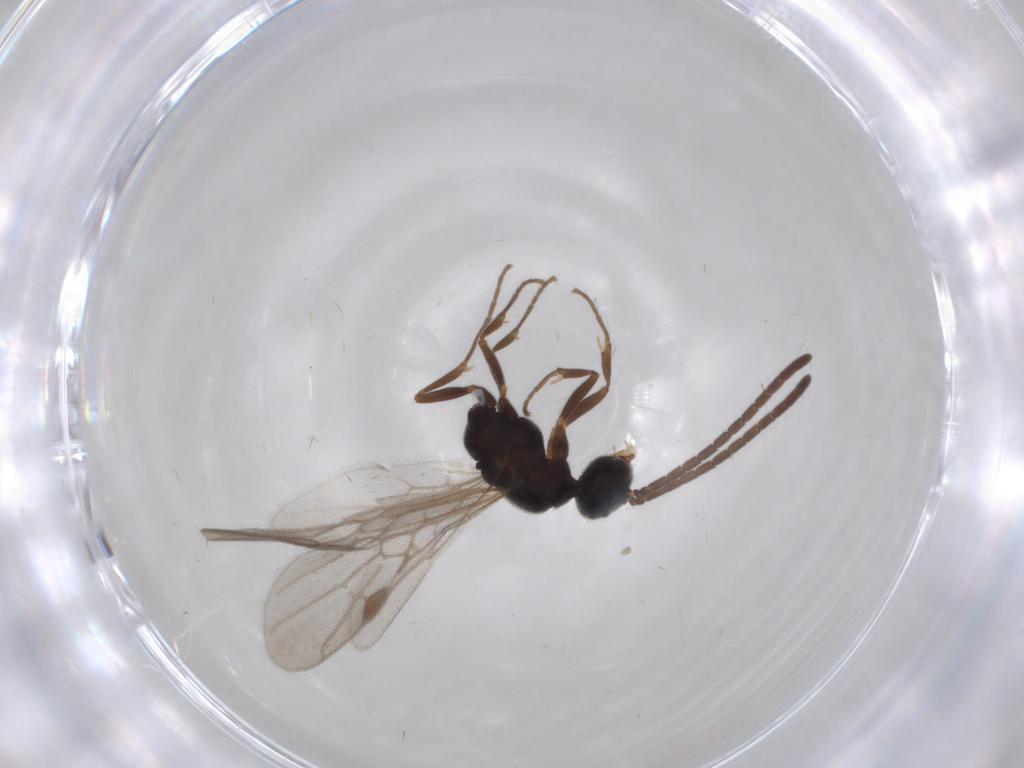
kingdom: Animalia
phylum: Arthropoda
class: Insecta
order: Hymenoptera
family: Formicidae
